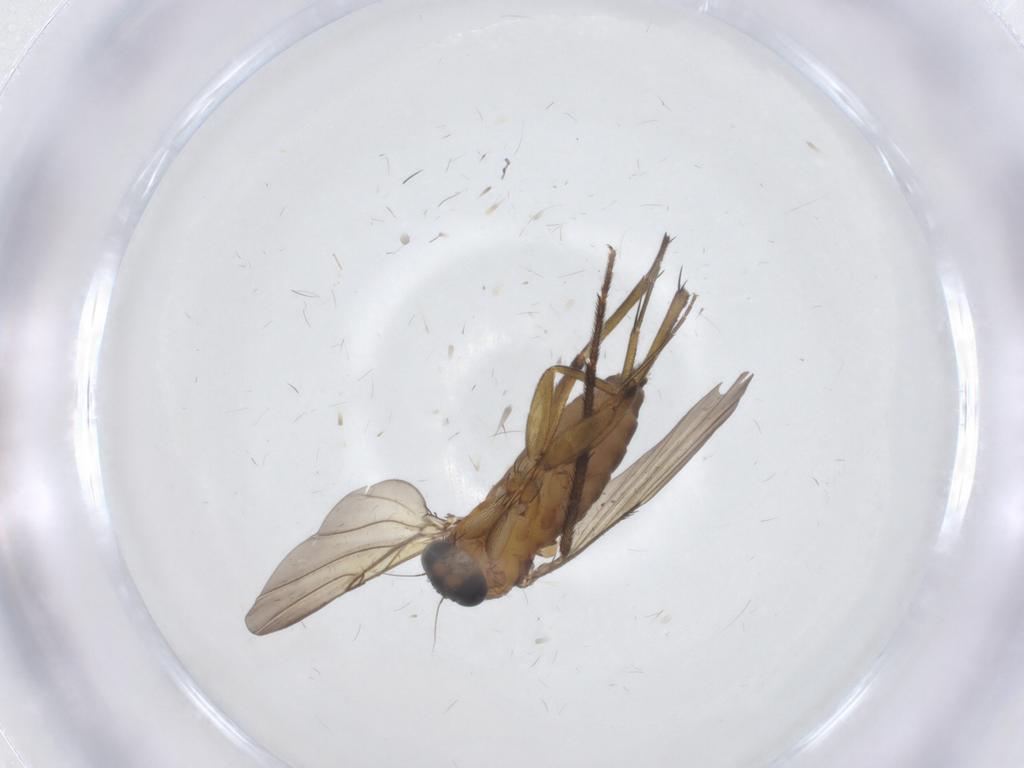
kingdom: Animalia
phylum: Arthropoda
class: Insecta
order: Diptera
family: Phoridae
